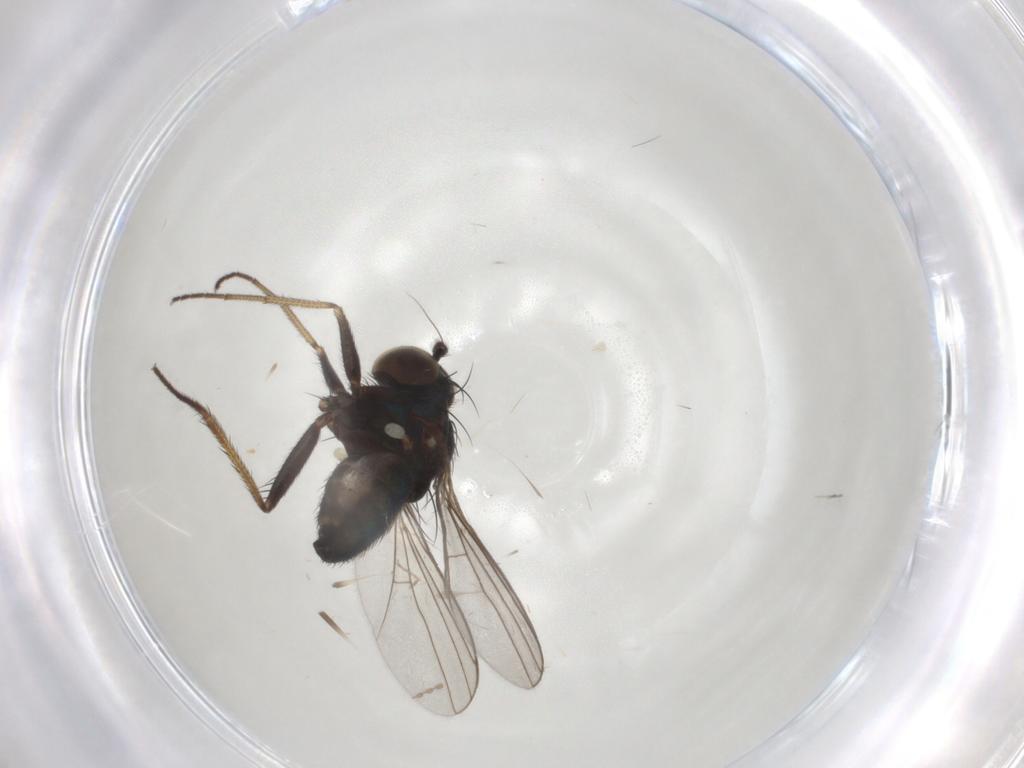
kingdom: Animalia
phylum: Arthropoda
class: Insecta
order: Diptera
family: Dolichopodidae
